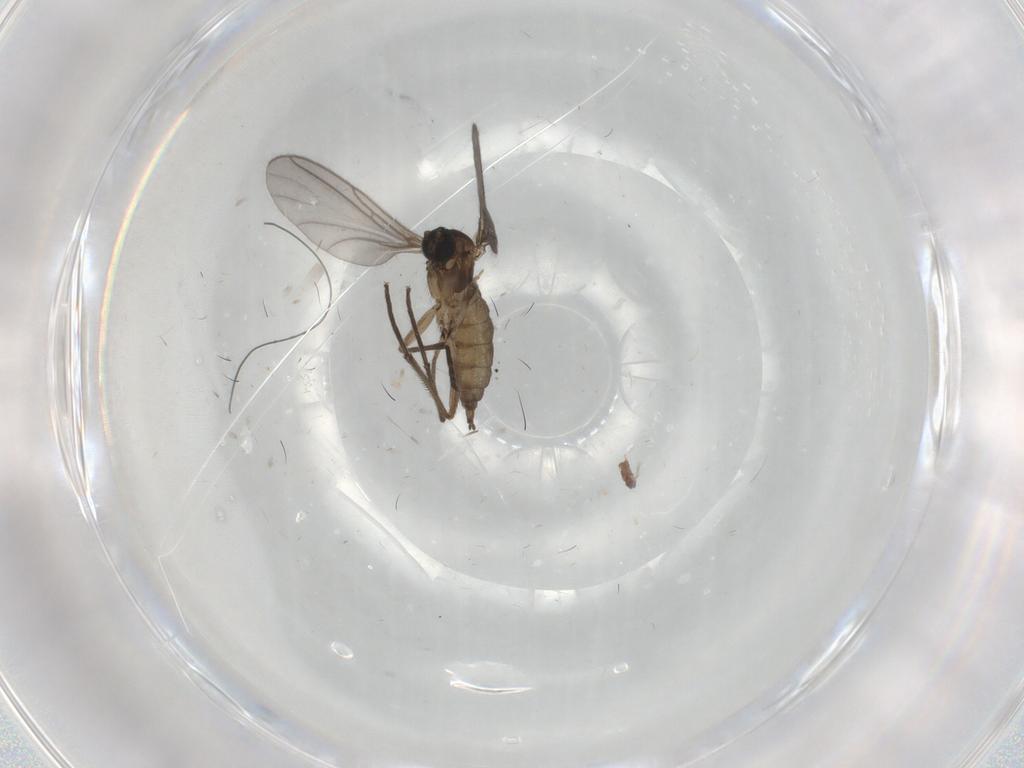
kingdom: Animalia
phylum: Arthropoda
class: Insecta
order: Diptera
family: Sciaridae
